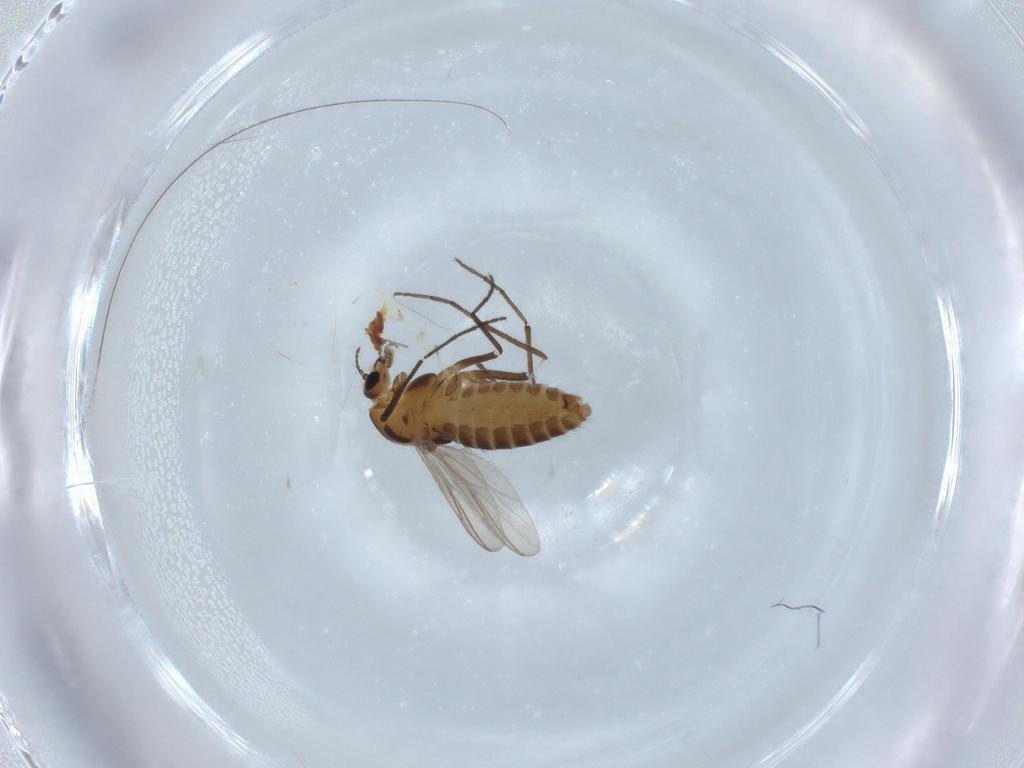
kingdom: Animalia
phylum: Arthropoda
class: Insecta
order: Diptera
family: Chironomidae
